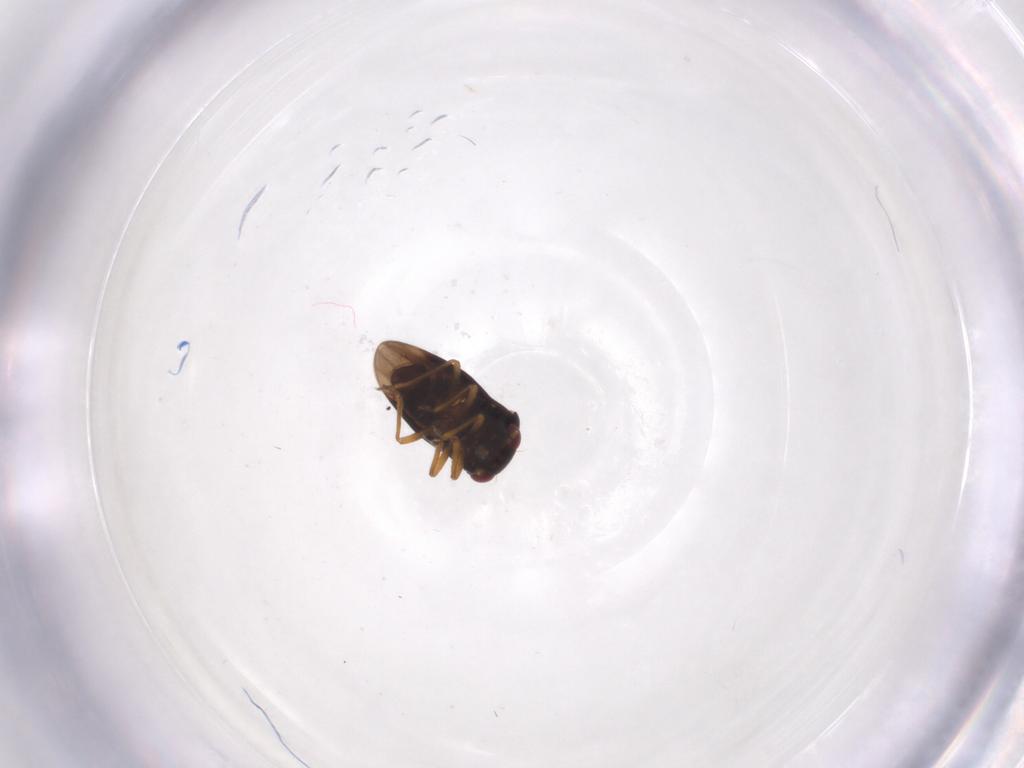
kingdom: Animalia
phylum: Arthropoda
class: Insecta
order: Hemiptera
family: Schizopteridae
